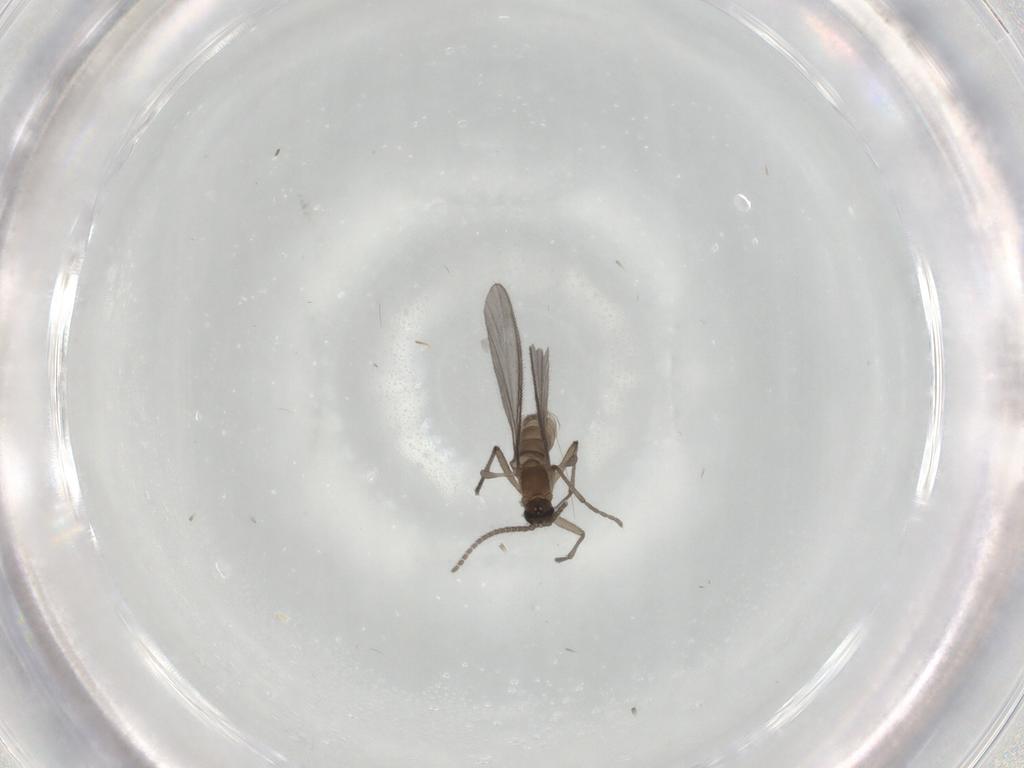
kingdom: Animalia
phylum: Arthropoda
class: Insecta
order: Diptera
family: Sciaridae
